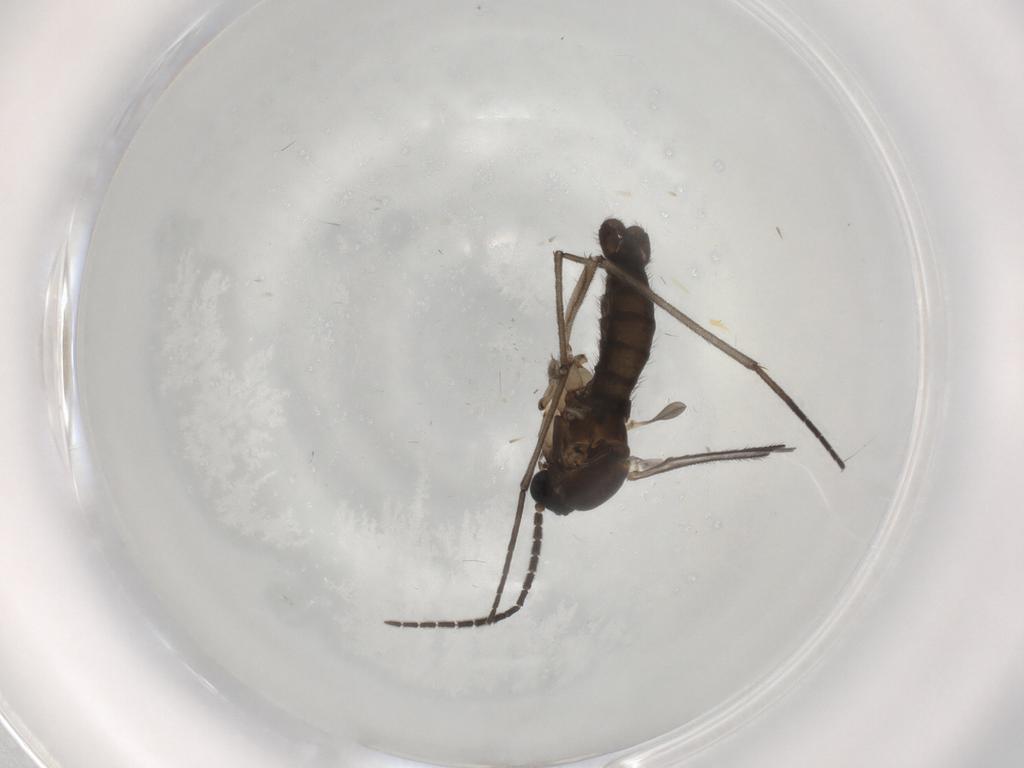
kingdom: Animalia
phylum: Arthropoda
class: Insecta
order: Diptera
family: Sciaridae
